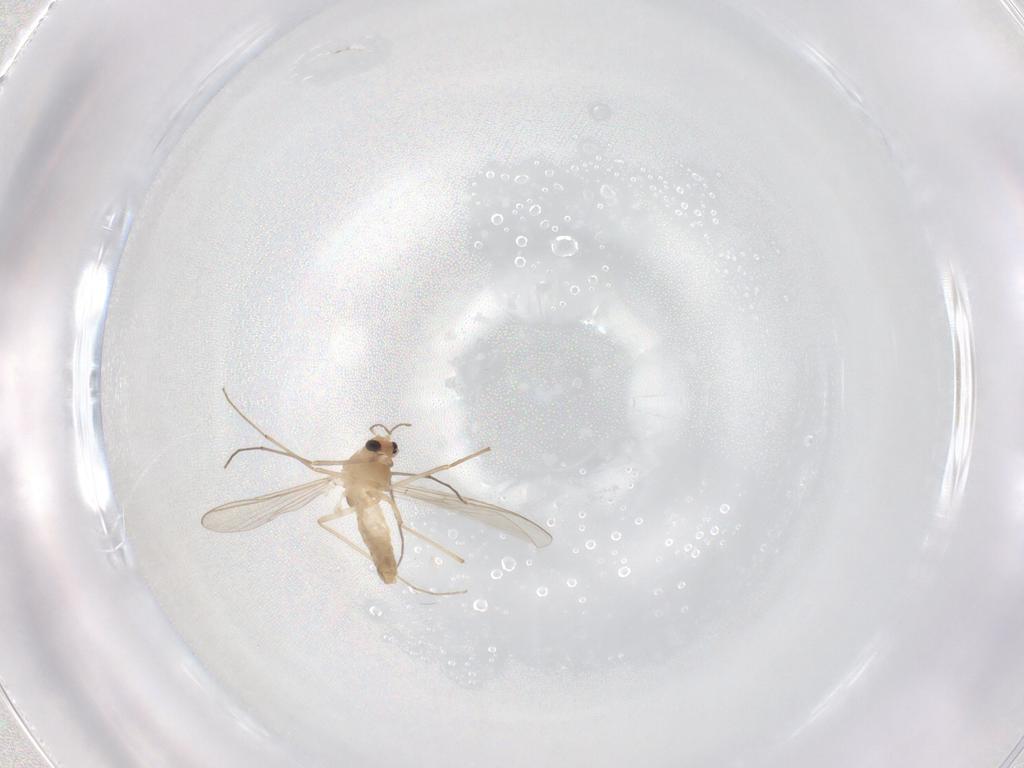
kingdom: Animalia
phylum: Arthropoda
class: Insecta
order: Diptera
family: Chironomidae
